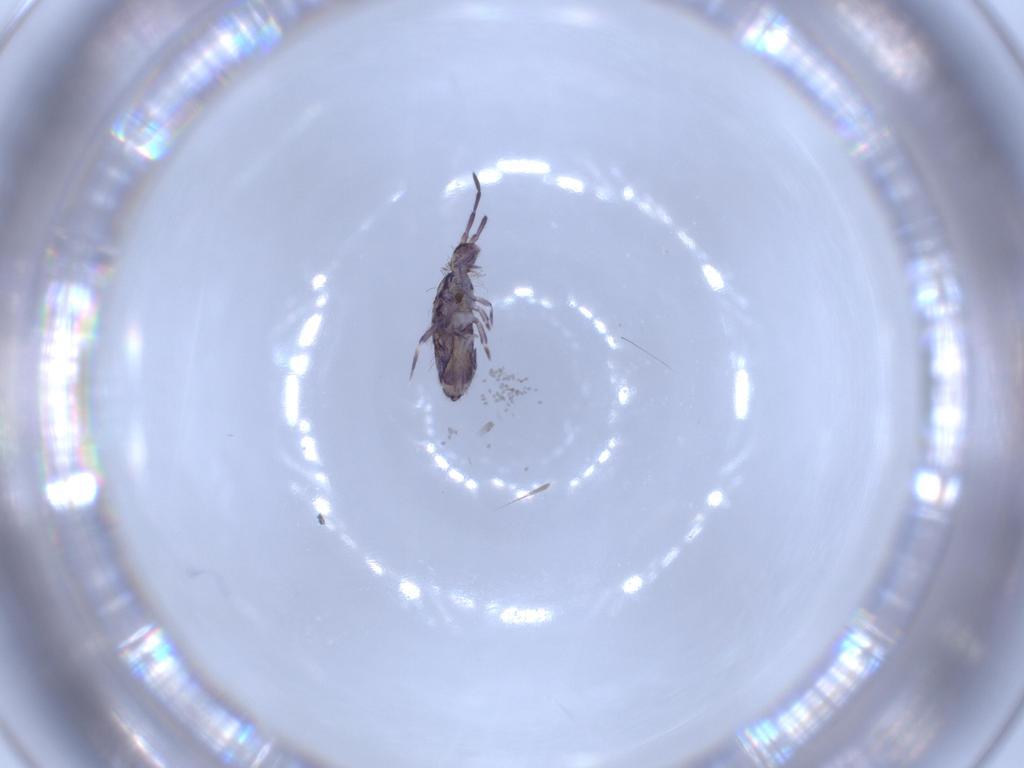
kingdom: Animalia
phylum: Arthropoda
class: Collembola
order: Entomobryomorpha
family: Entomobryidae
